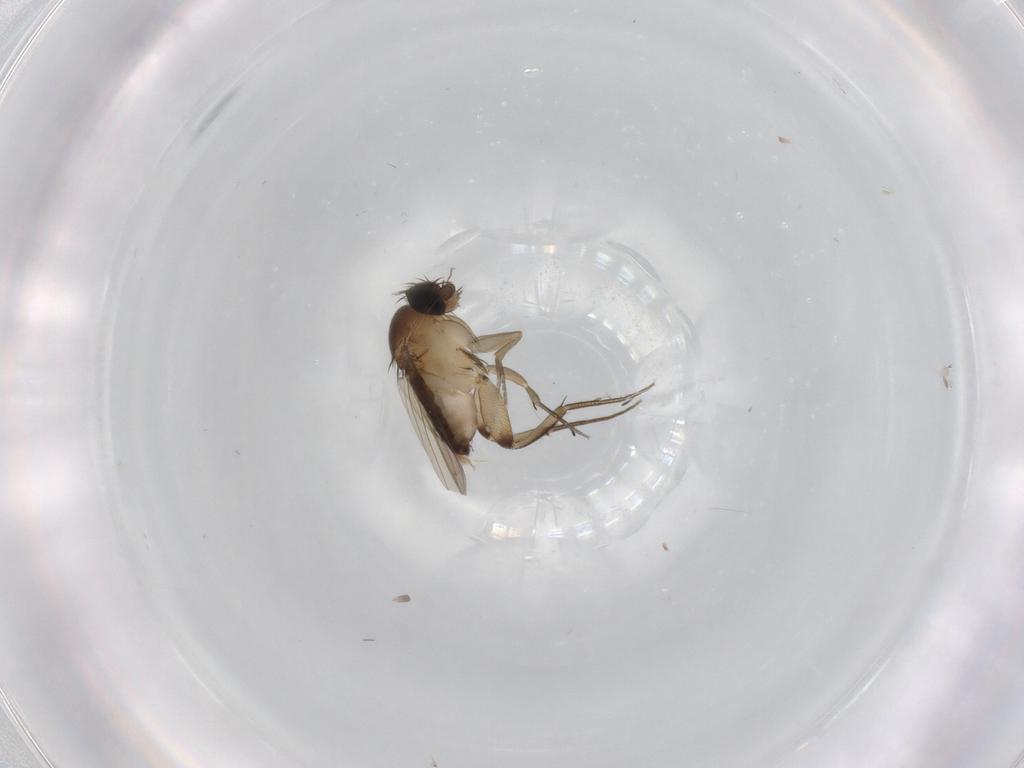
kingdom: Animalia
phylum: Arthropoda
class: Insecta
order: Diptera
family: Phoridae
